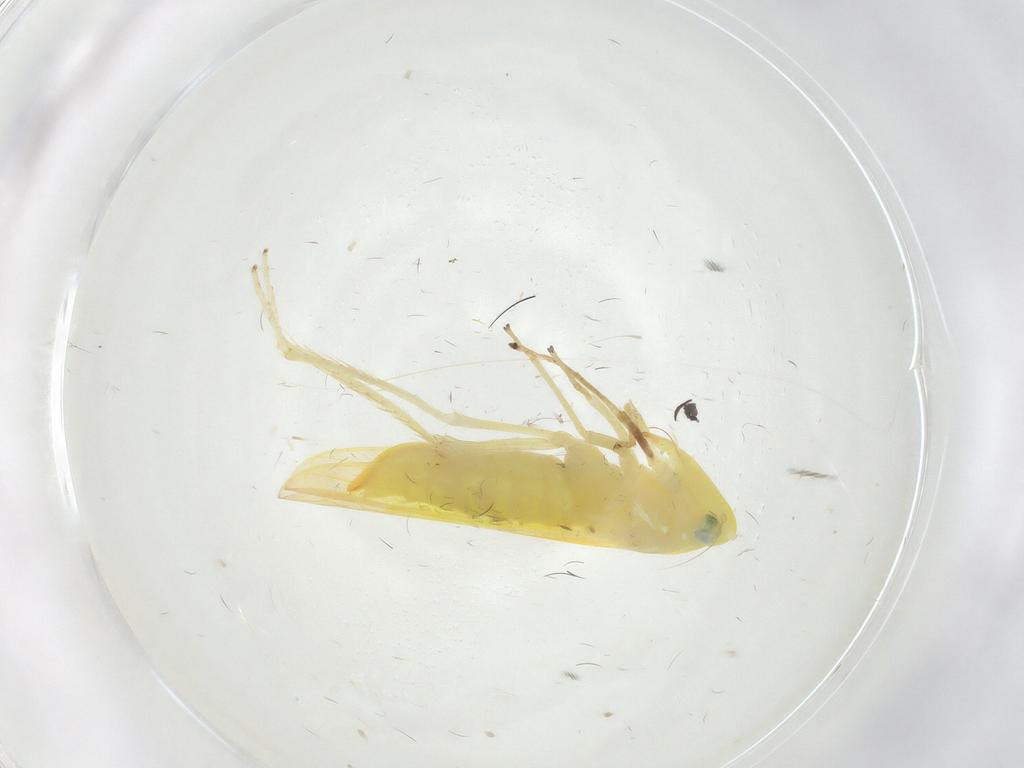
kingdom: Animalia
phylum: Arthropoda
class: Insecta
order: Hemiptera
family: Cicadellidae
